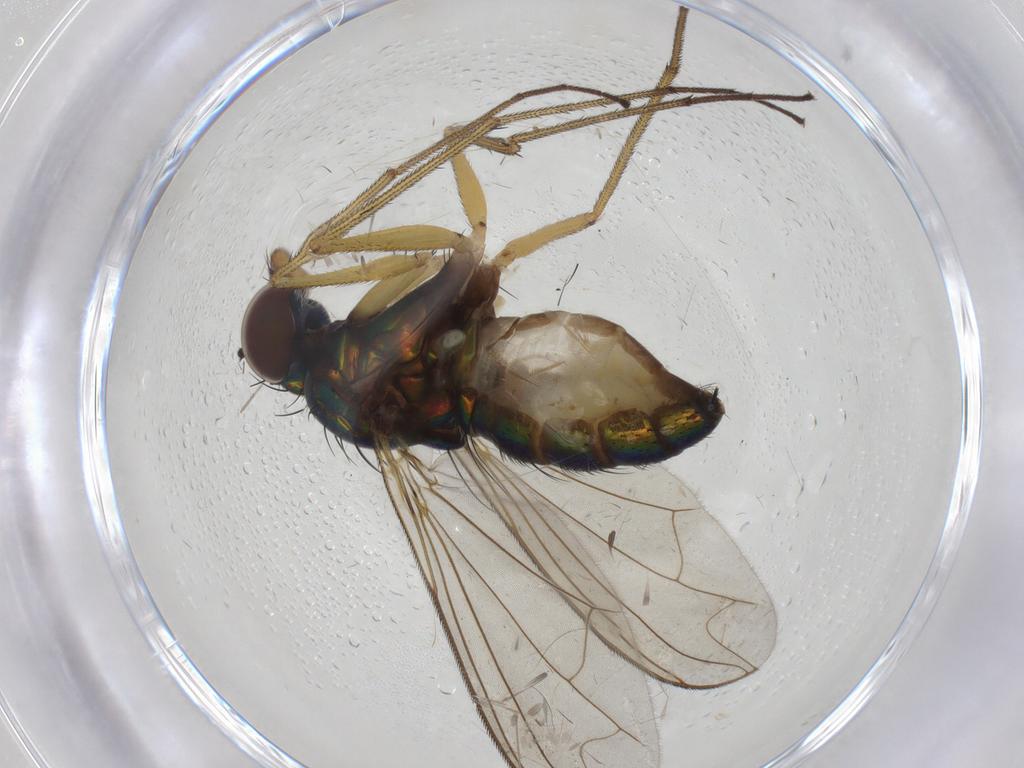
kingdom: Animalia
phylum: Arthropoda
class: Insecta
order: Diptera
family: Dolichopodidae
